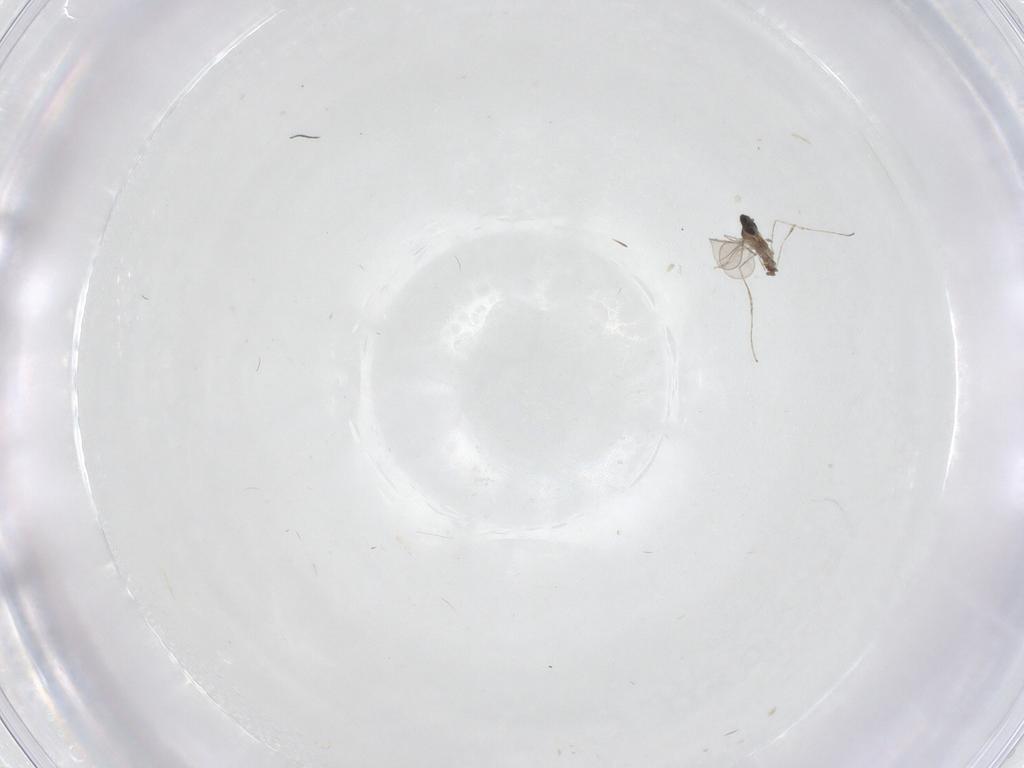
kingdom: Animalia
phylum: Arthropoda
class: Insecta
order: Diptera
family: Cecidomyiidae
